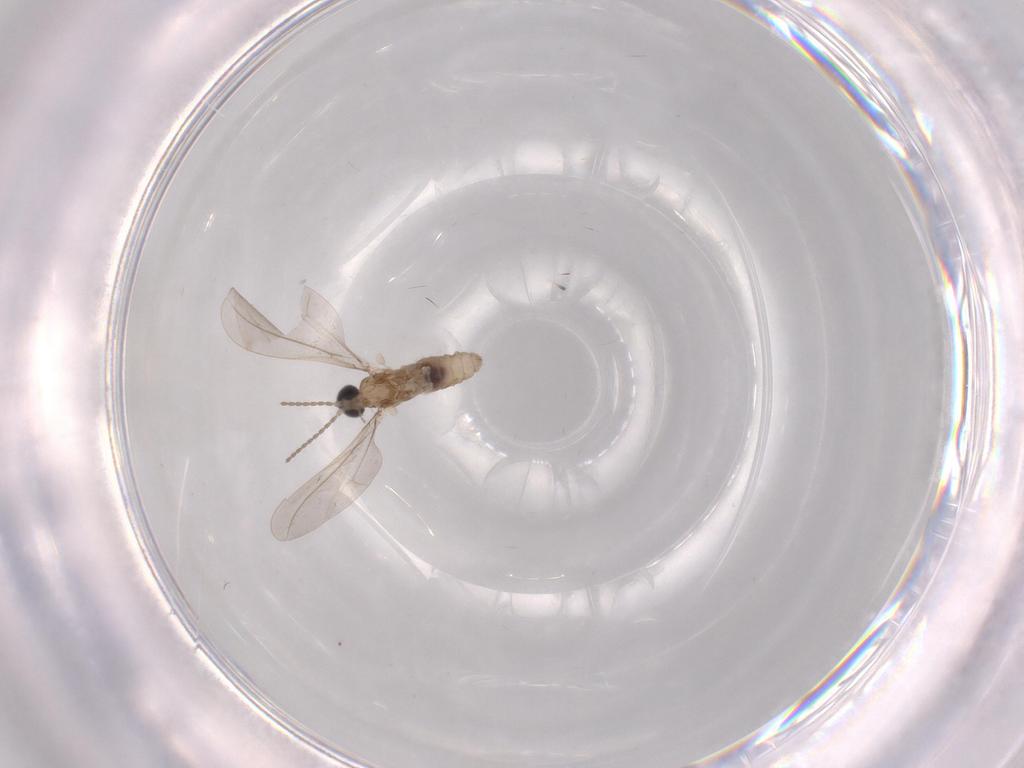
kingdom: Animalia
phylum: Arthropoda
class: Insecta
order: Diptera
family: Cecidomyiidae
